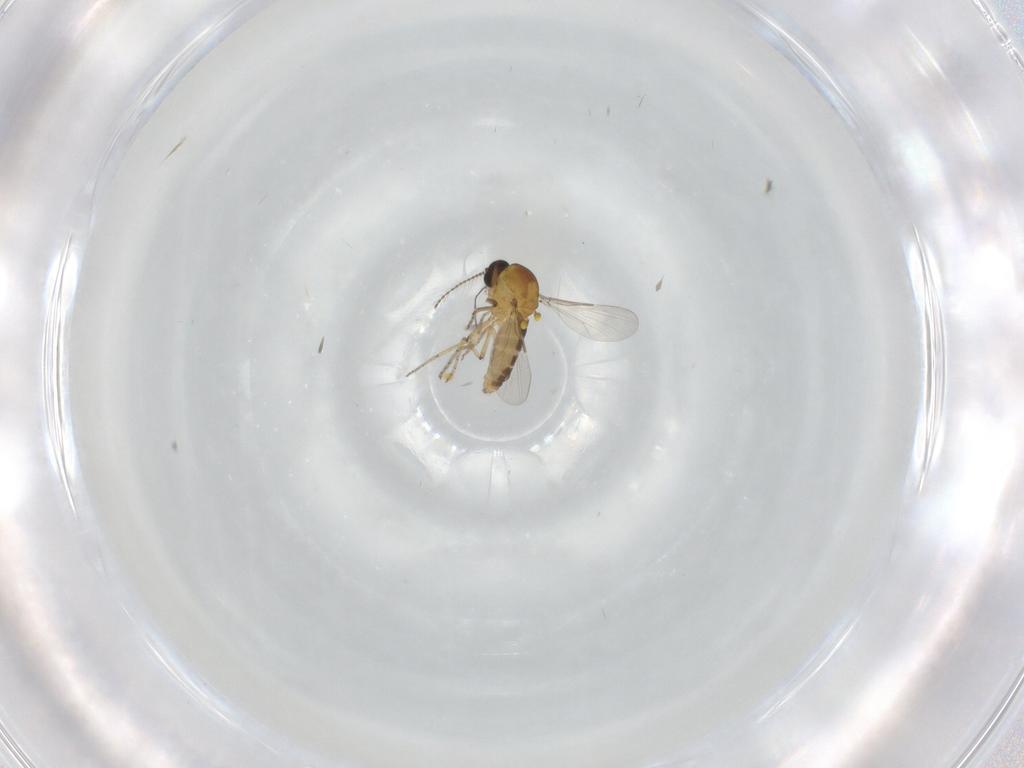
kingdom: Animalia
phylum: Arthropoda
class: Insecta
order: Diptera
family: Ceratopogonidae
